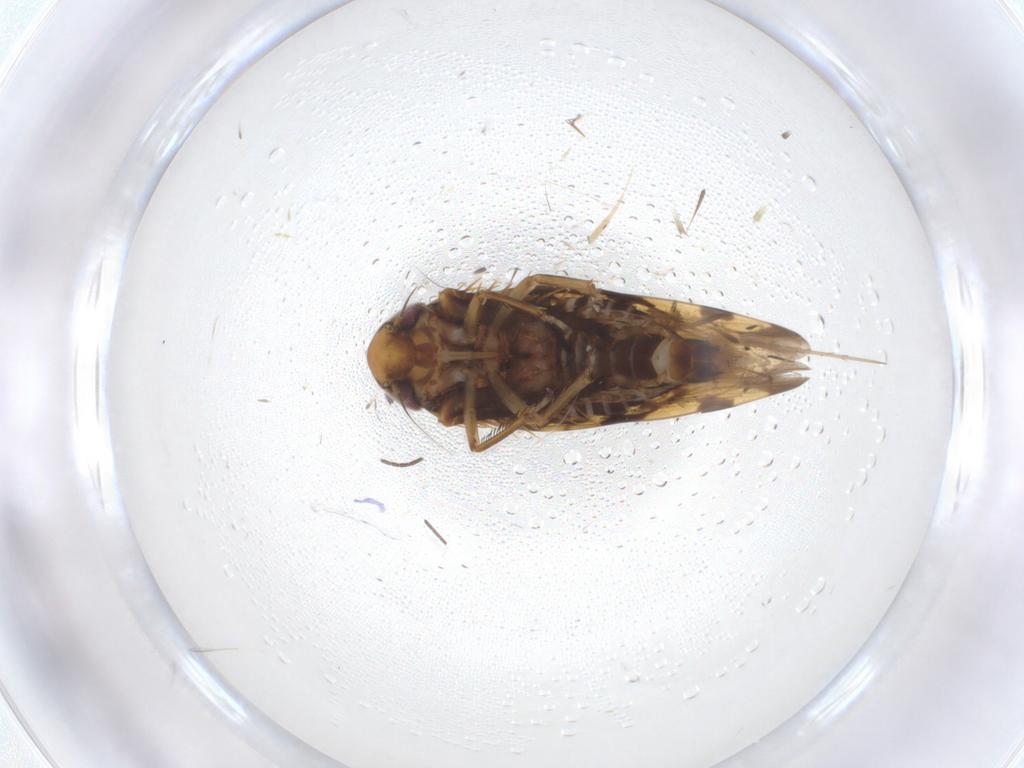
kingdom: Animalia
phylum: Arthropoda
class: Insecta
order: Hemiptera
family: Cicadellidae
